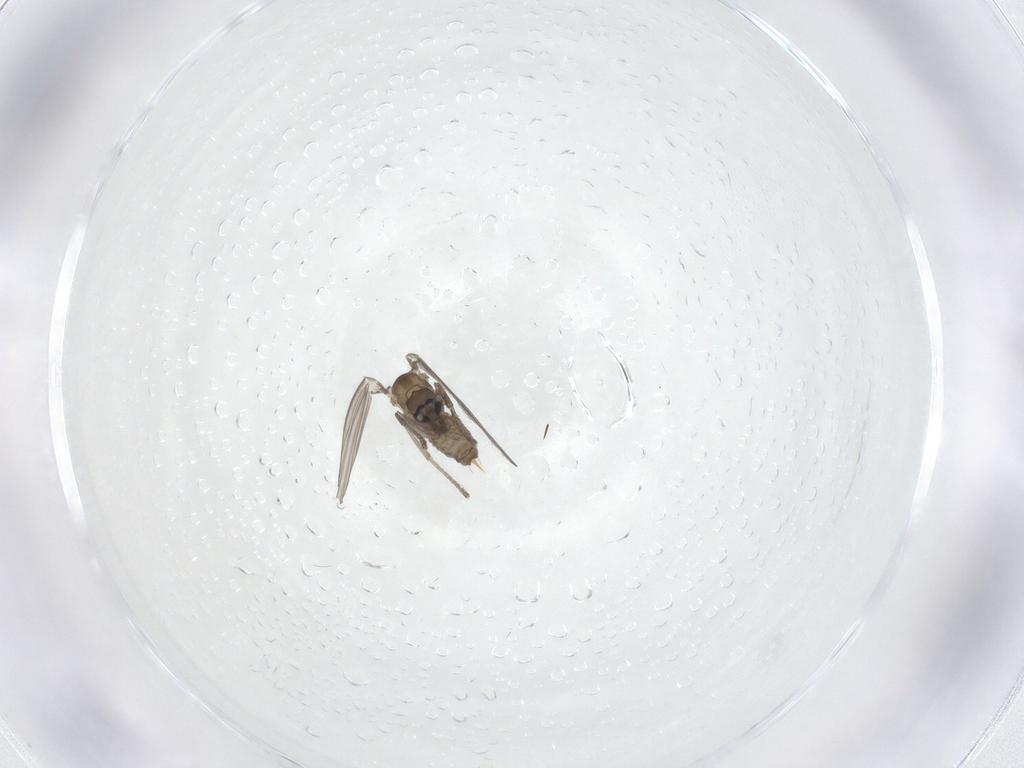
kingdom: Animalia
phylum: Arthropoda
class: Insecta
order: Diptera
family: Psychodidae
